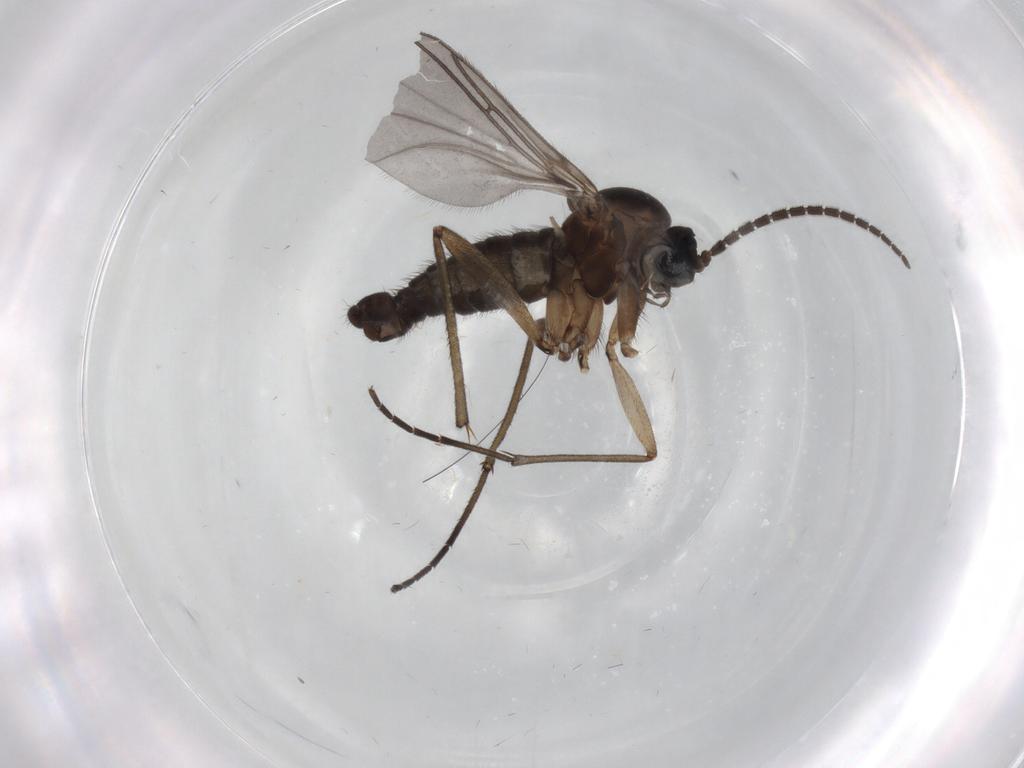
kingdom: Animalia
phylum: Arthropoda
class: Insecta
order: Diptera
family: Sciaridae
